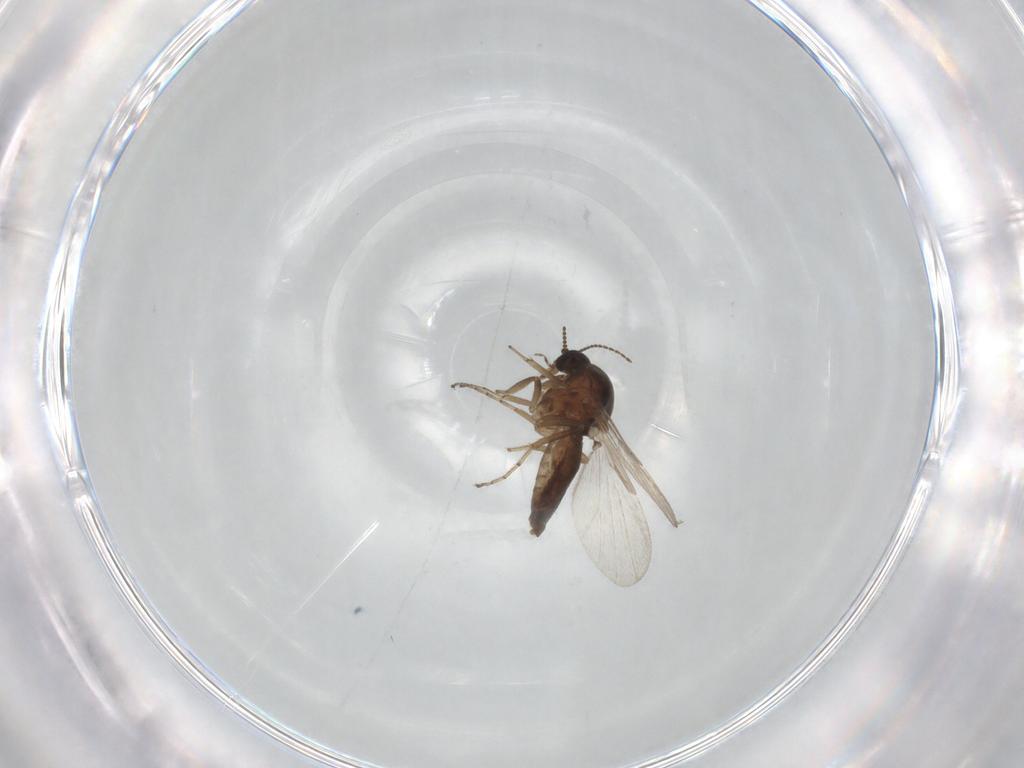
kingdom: Animalia
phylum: Arthropoda
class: Insecta
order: Diptera
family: Ceratopogonidae
